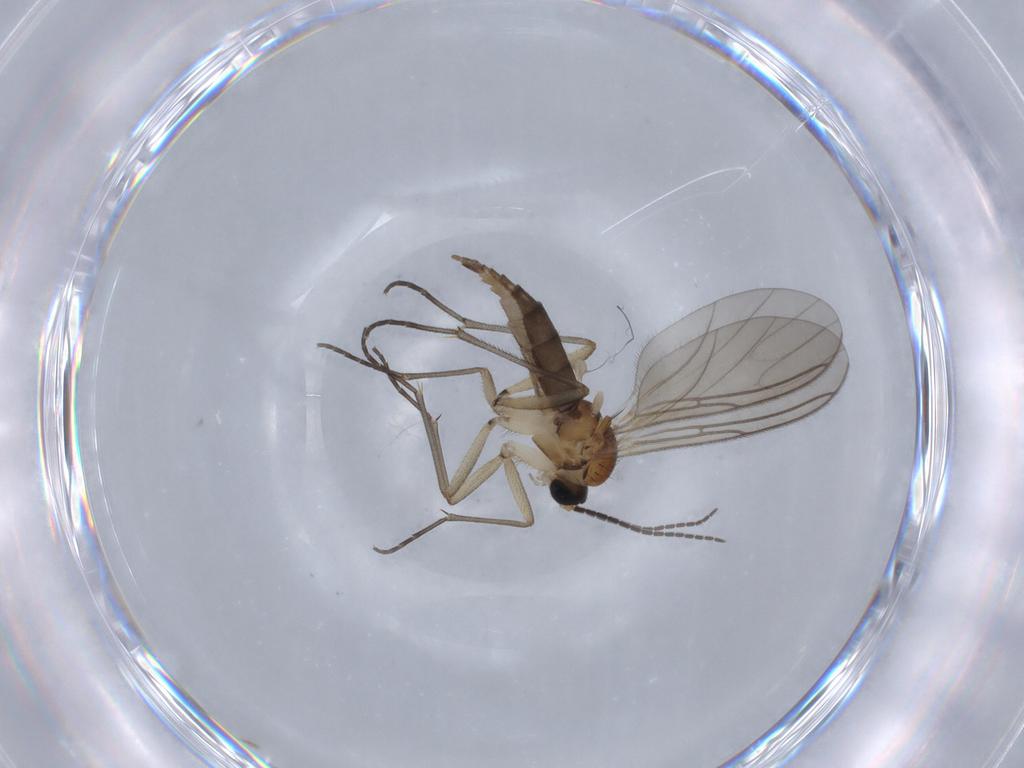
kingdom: Animalia
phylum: Arthropoda
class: Insecta
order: Diptera
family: Sciaridae
